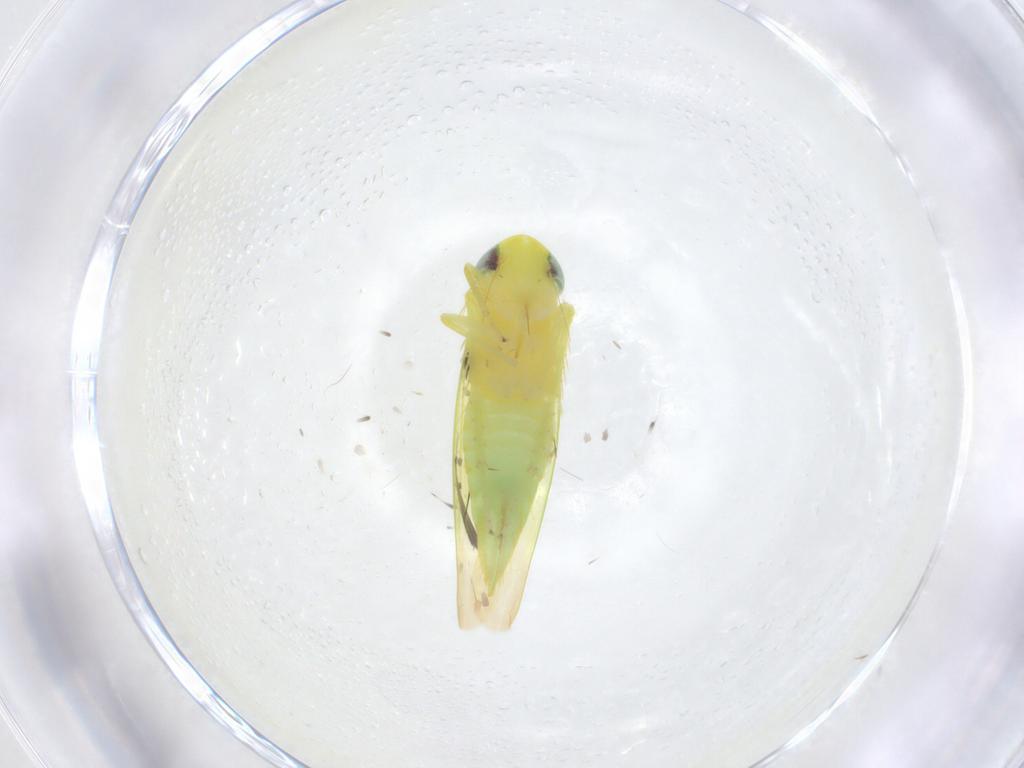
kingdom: Animalia
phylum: Arthropoda
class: Insecta
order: Hemiptera
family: Cicadellidae
